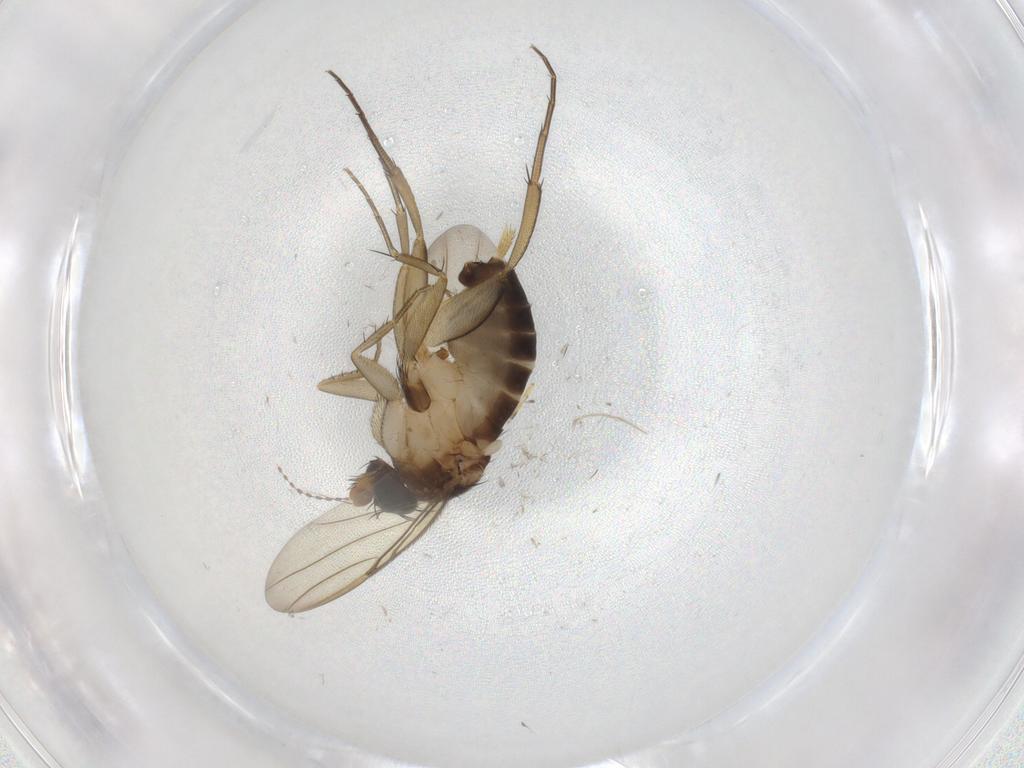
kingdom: Animalia
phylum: Arthropoda
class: Insecta
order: Diptera
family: Phoridae
